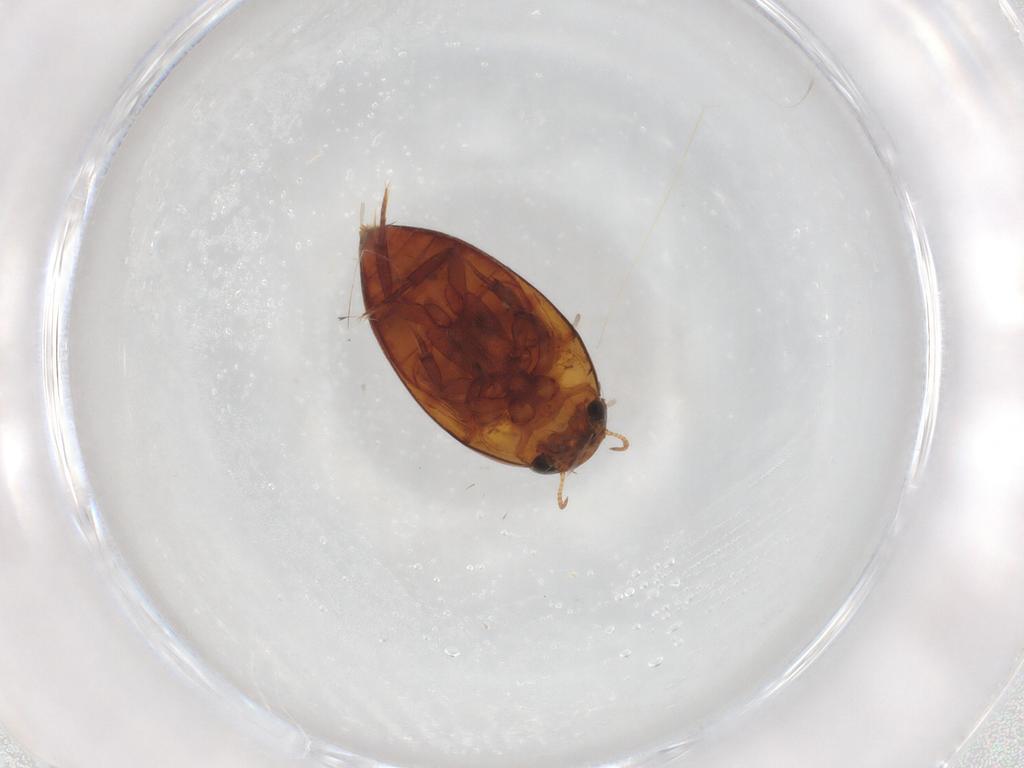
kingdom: Animalia
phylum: Arthropoda
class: Insecta
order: Coleoptera
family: Noteridae
